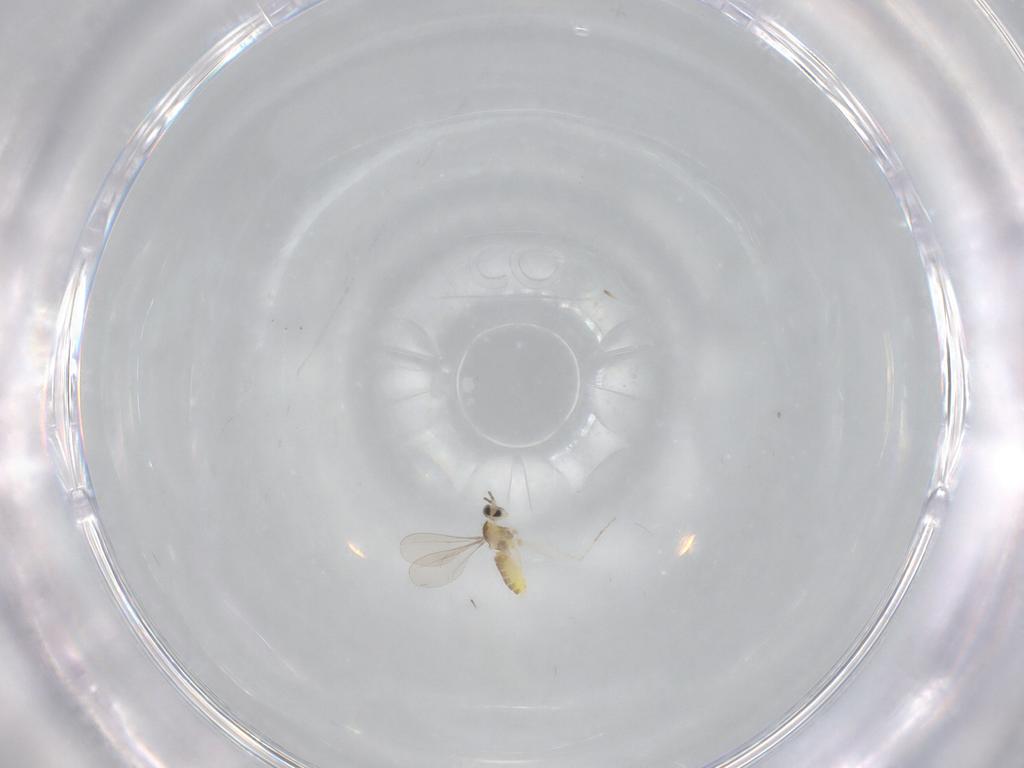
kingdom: Animalia
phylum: Arthropoda
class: Insecta
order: Diptera
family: Cecidomyiidae
